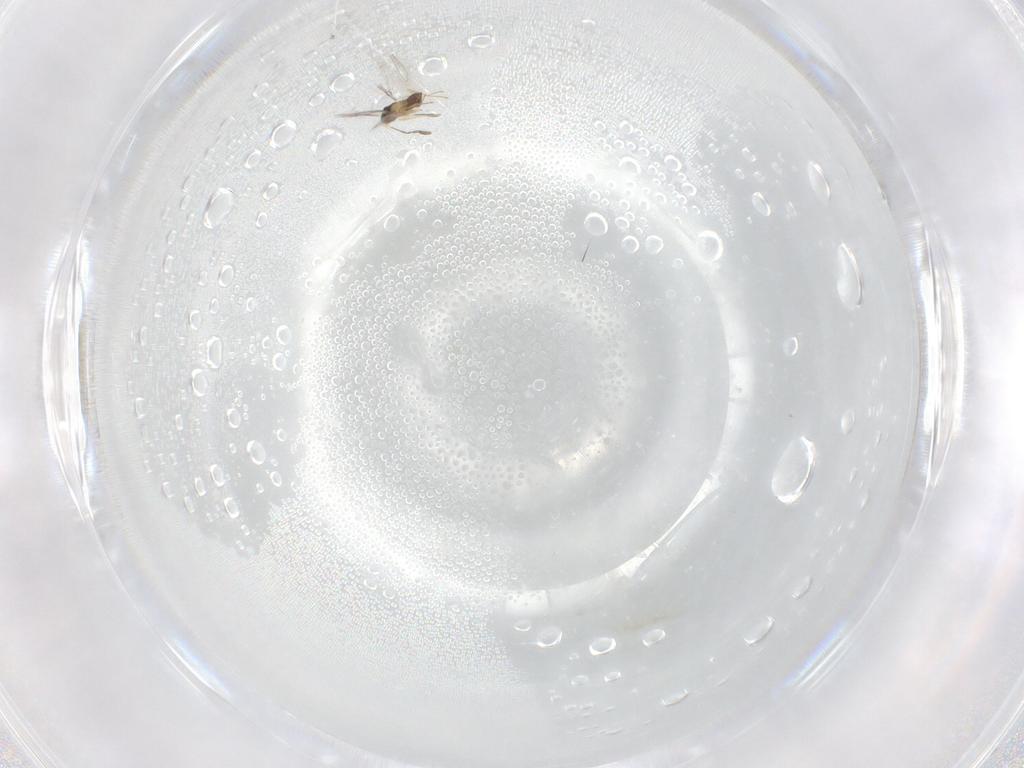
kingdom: Animalia
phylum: Arthropoda
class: Insecta
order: Hymenoptera
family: Mymaridae
